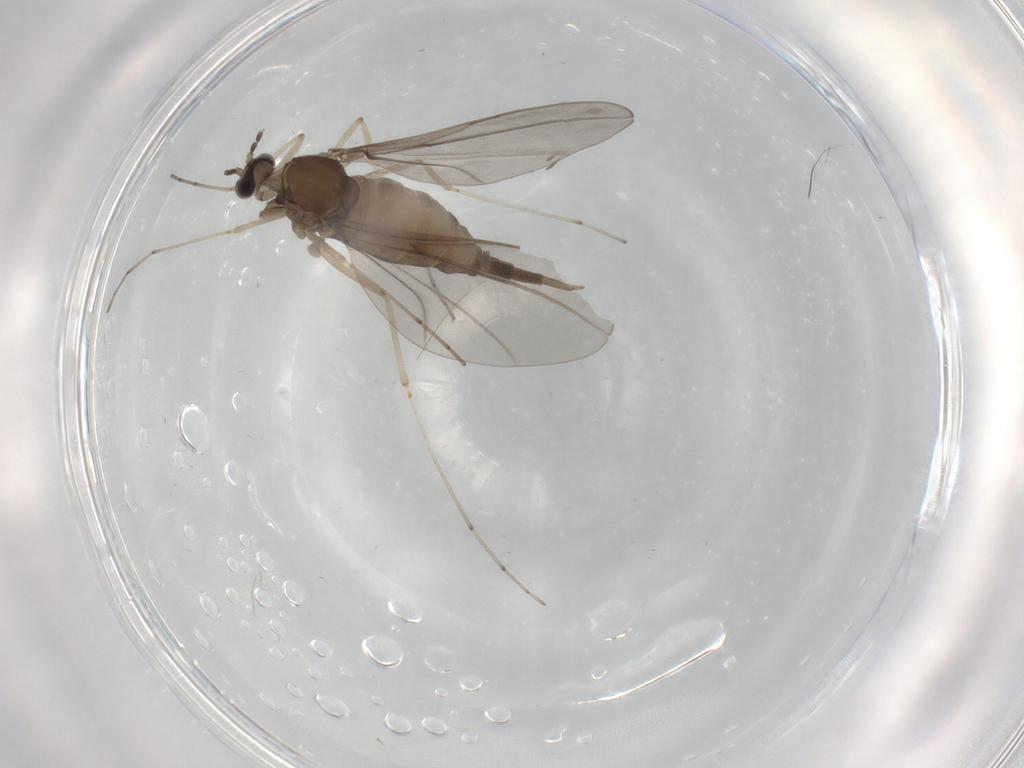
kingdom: Animalia
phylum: Arthropoda
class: Insecta
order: Diptera
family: Cecidomyiidae
